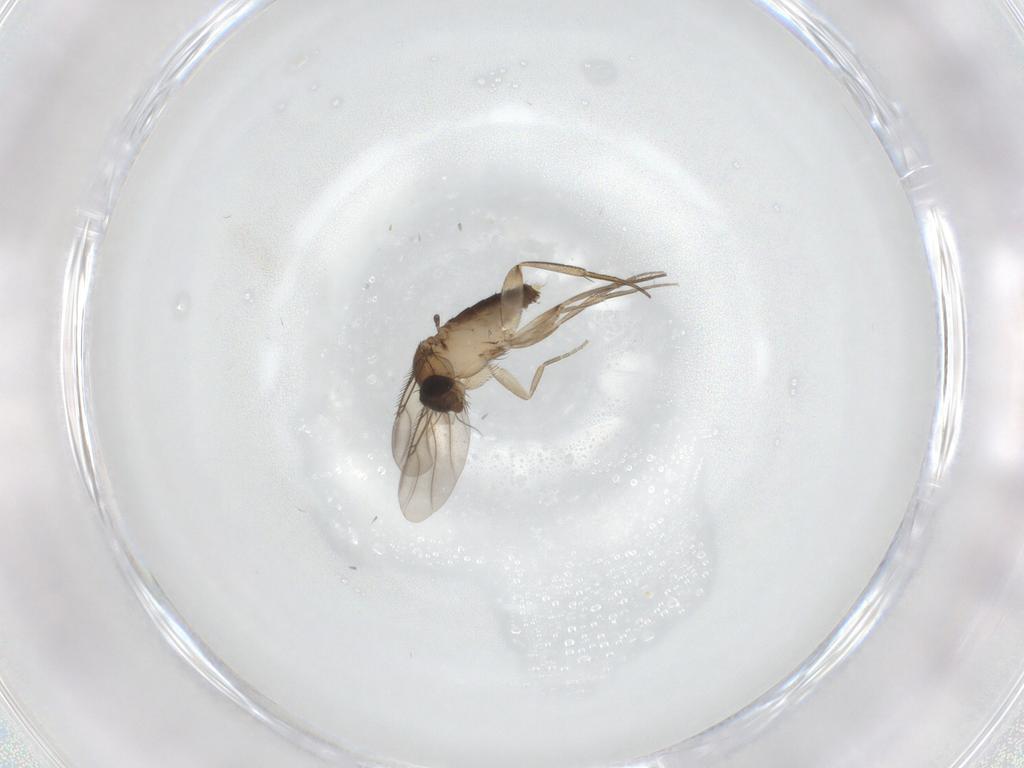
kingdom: Animalia
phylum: Arthropoda
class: Insecta
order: Diptera
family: Phoridae
